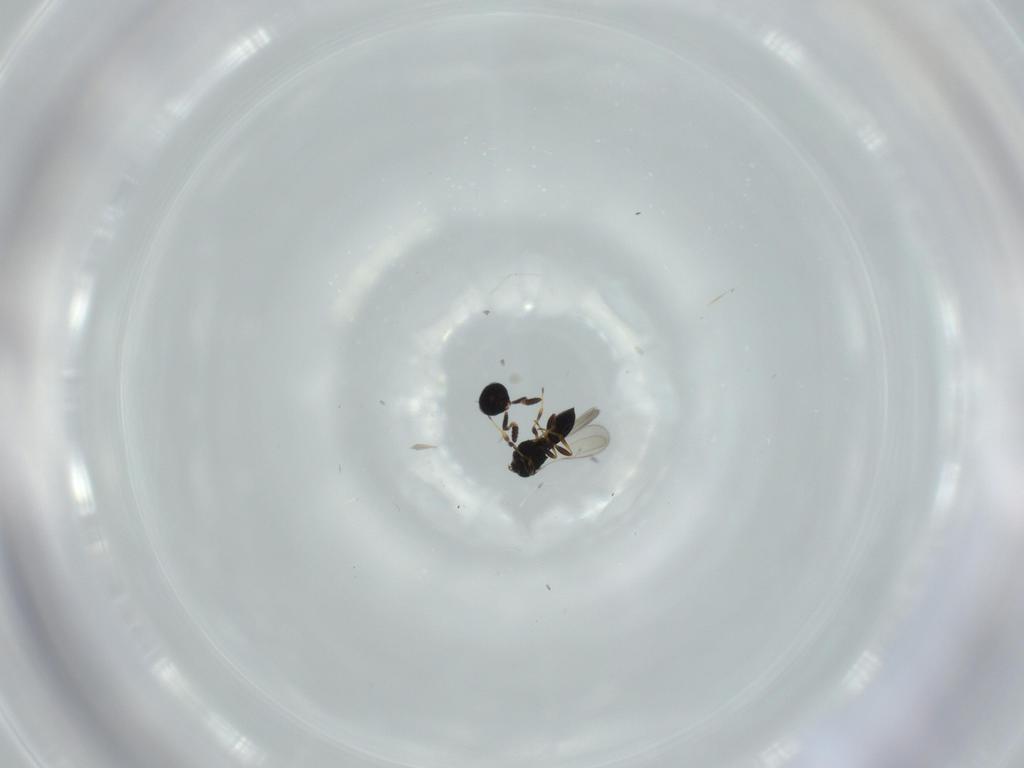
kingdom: Animalia
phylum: Arthropoda
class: Insecta
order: Hymenoptera
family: Scelionidae
